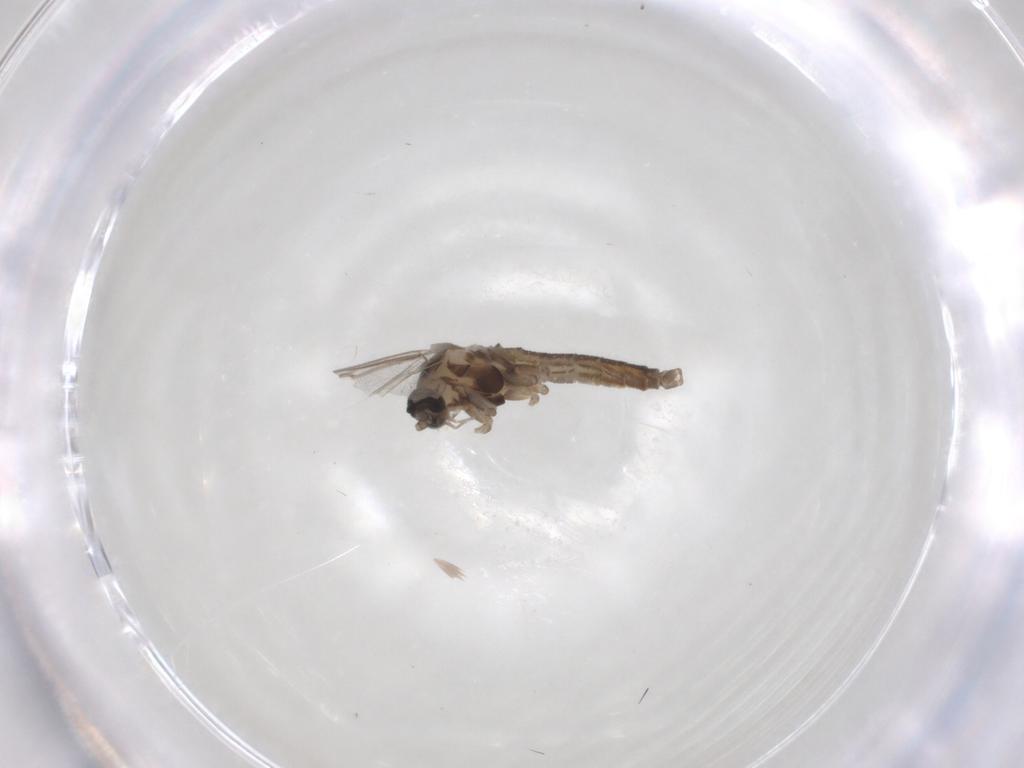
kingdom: Animalia
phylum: Arthropoda
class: Insecta
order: Diptera
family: Cecidomyiidae
